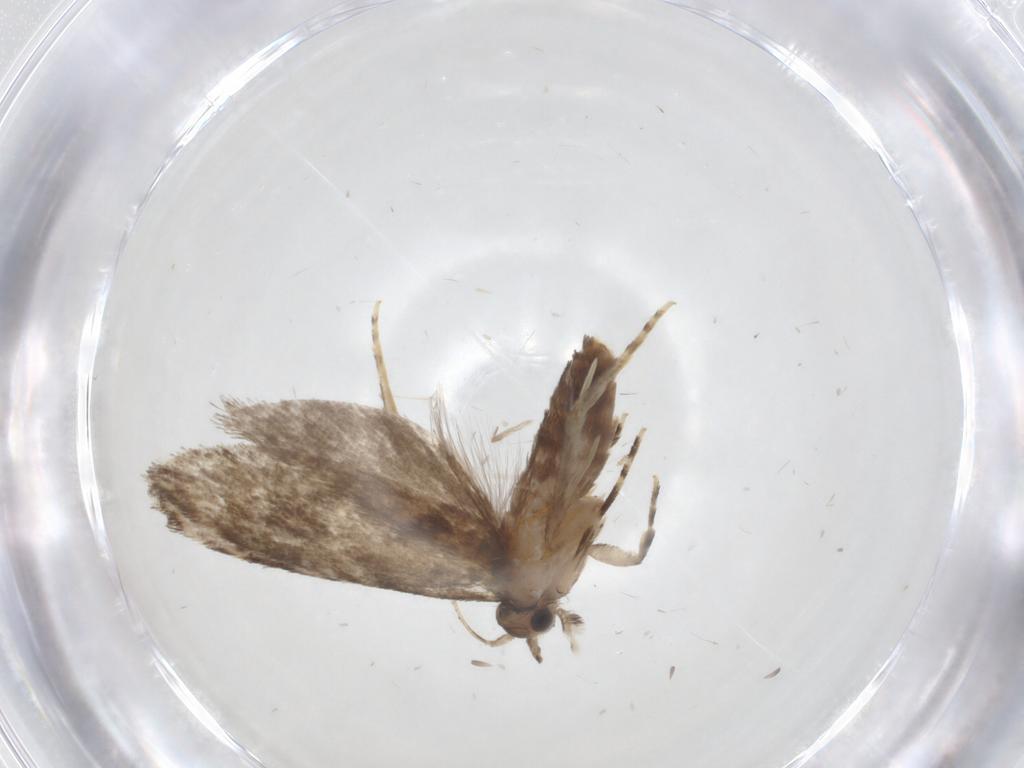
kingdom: Animalia
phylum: Arthropoda
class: Insecta
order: Lepidoptera
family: Tineidae
